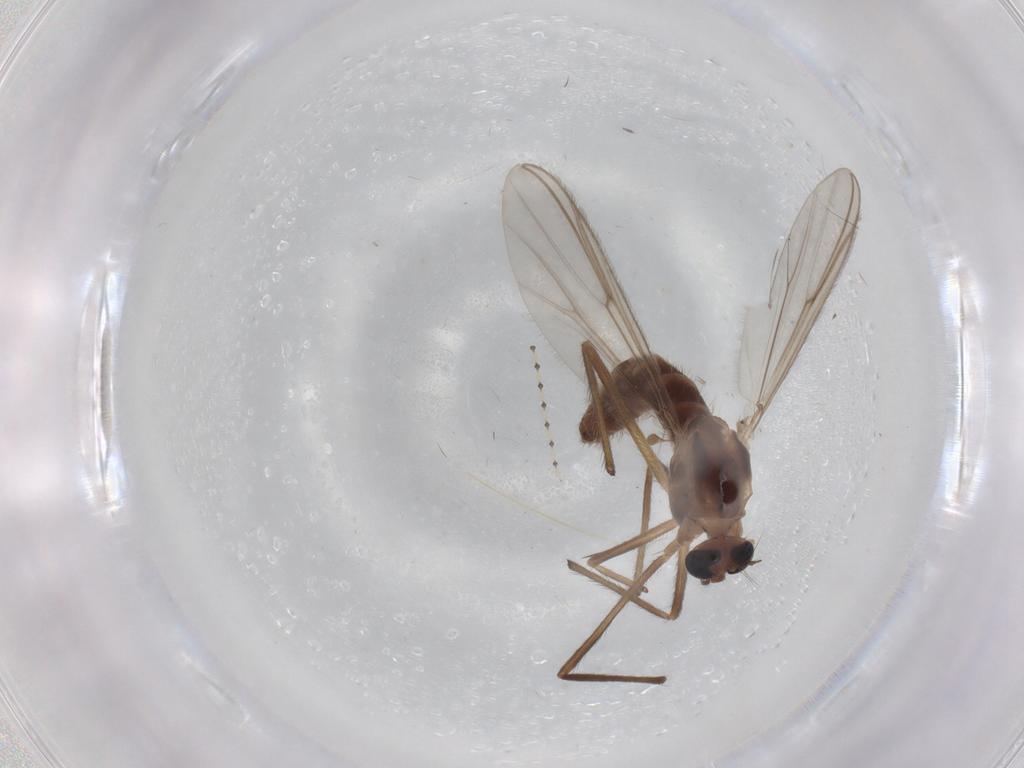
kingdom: Animalia
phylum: Arthropoda
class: Insecta
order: Diptera
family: Chironomidae
